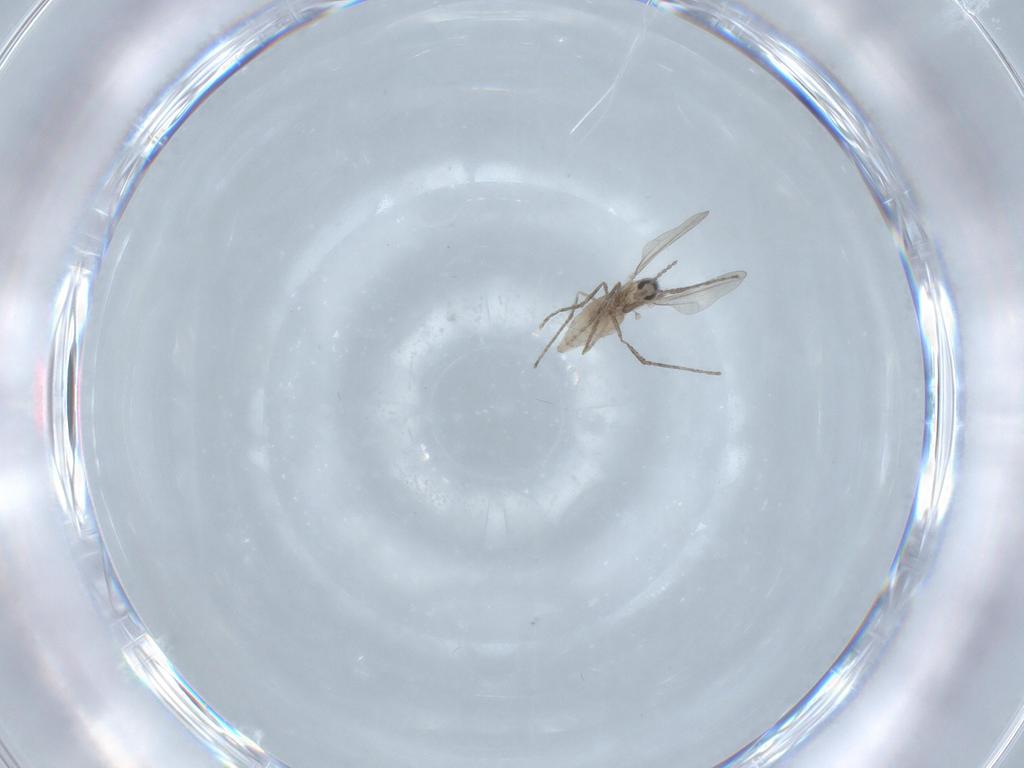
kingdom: Animalia
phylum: Arthropoda
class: Insecta
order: Diptera
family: Cecidomyiidae
